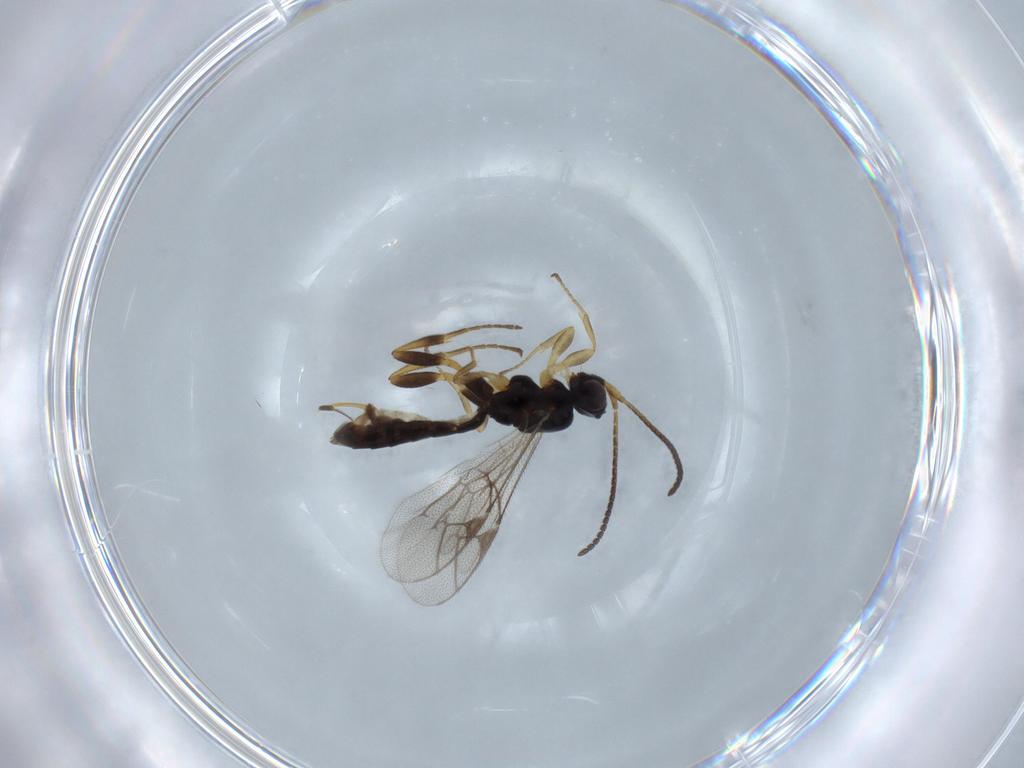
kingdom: Animalia
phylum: Arthropoda
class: Insecta
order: Hymenoptera
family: Ichneumonidae
